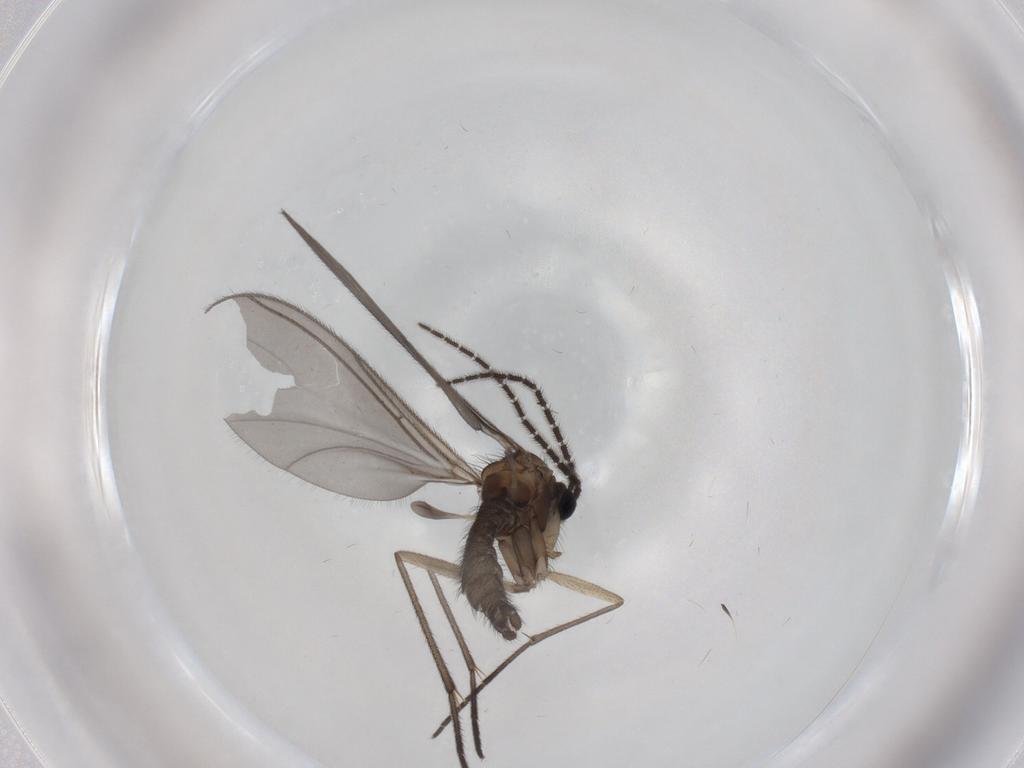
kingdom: Animalia
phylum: Arthropoda
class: Insecta
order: Diptera
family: Sciaridae
